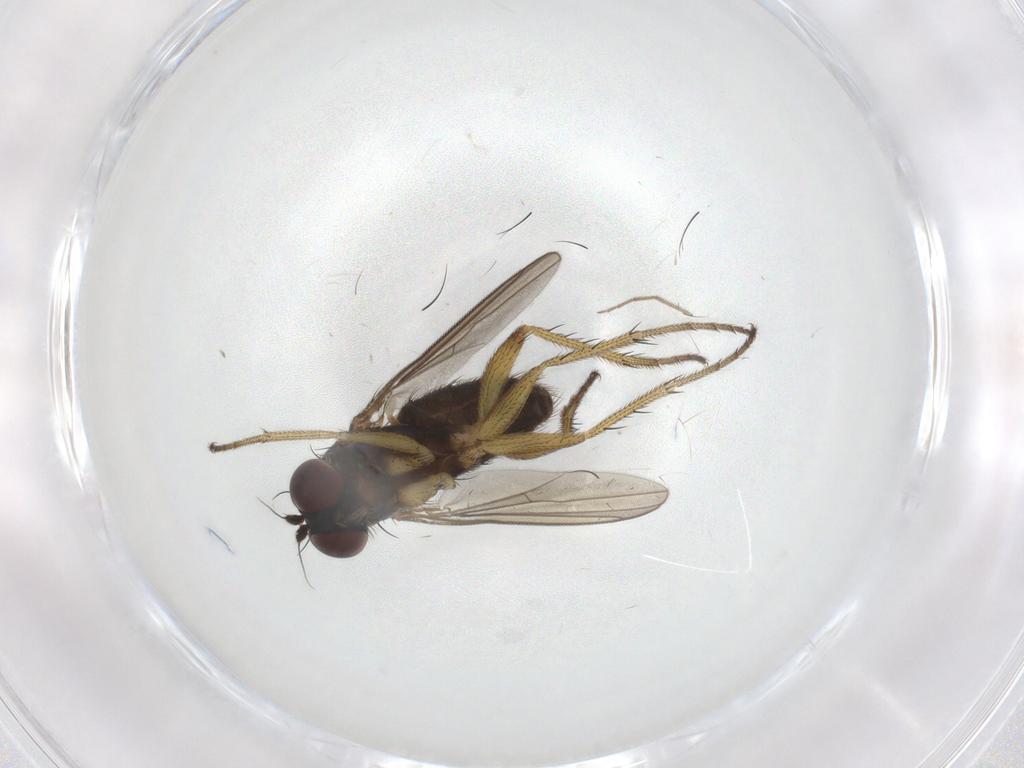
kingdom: Animalia
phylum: Arthropoda
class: Insecta
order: Diptera
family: Dolichopodidae
